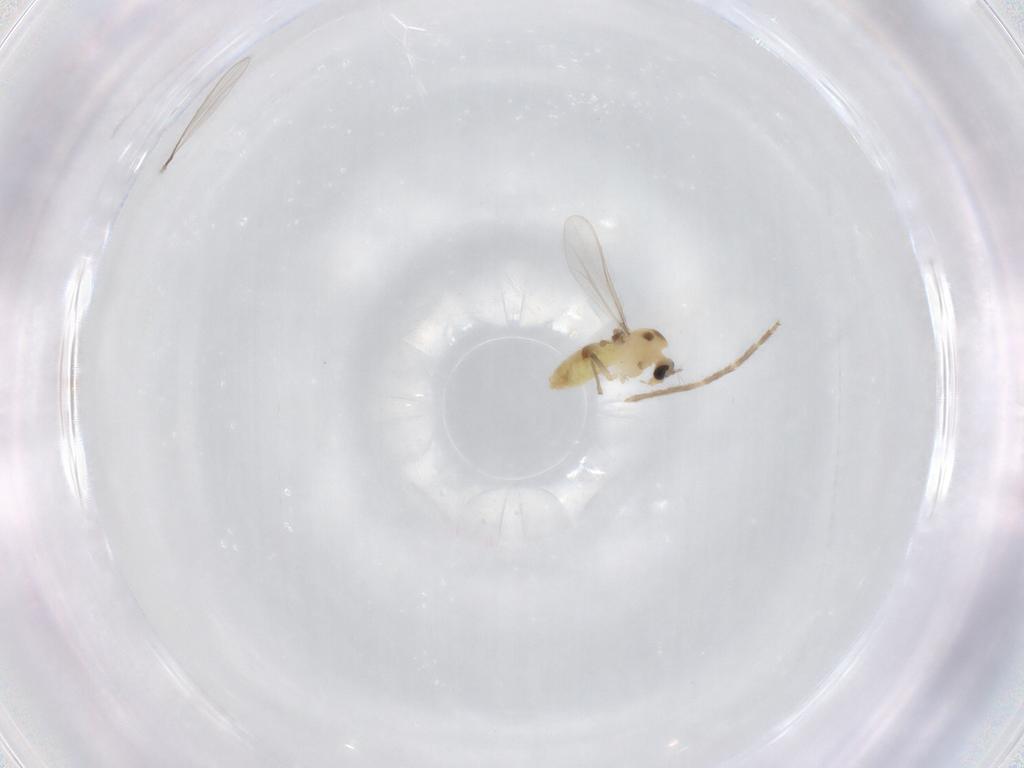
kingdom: Animalia
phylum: Arthropoda
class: Insecta
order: Diptera
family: Chironomidae
